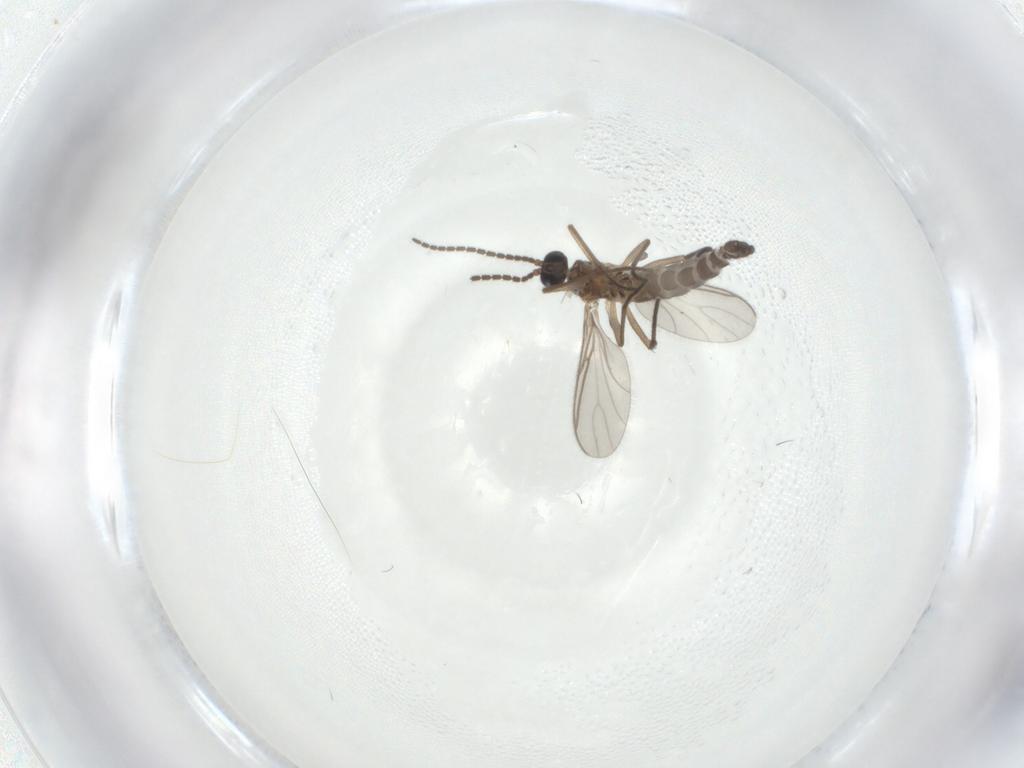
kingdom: Animalia
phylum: Arthropoda
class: Insecta
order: Diptera
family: Sciaridae
